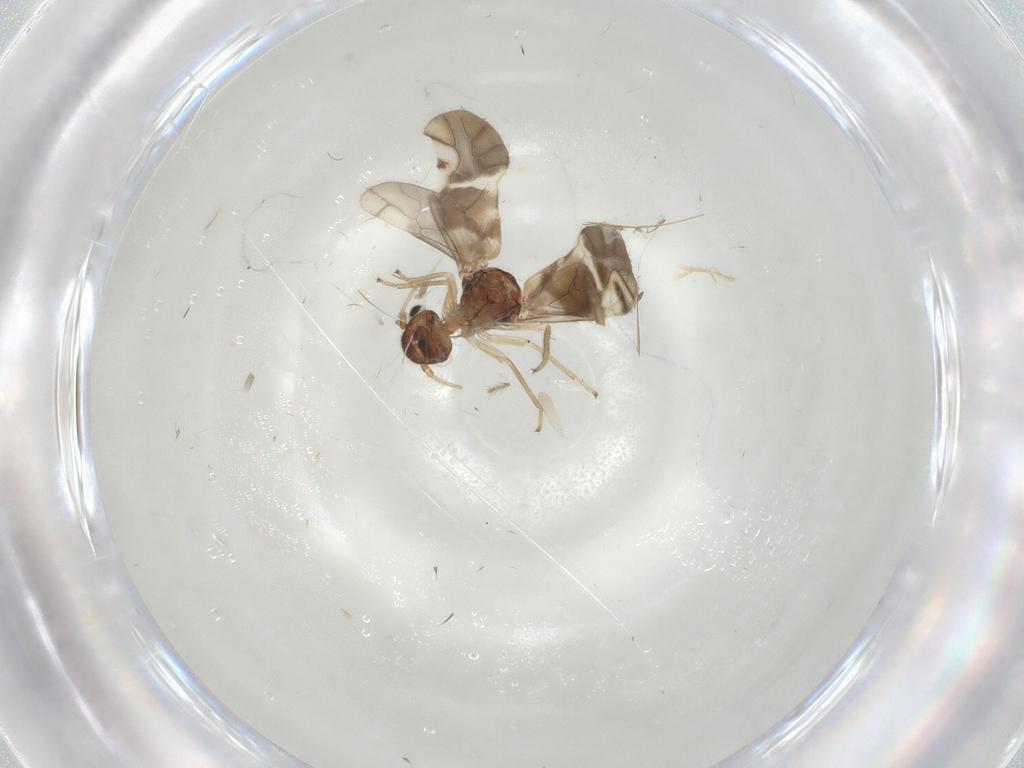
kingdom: Animalia
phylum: Arthropoda
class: Insecta
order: Psocodea
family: Lepidopsocidae
